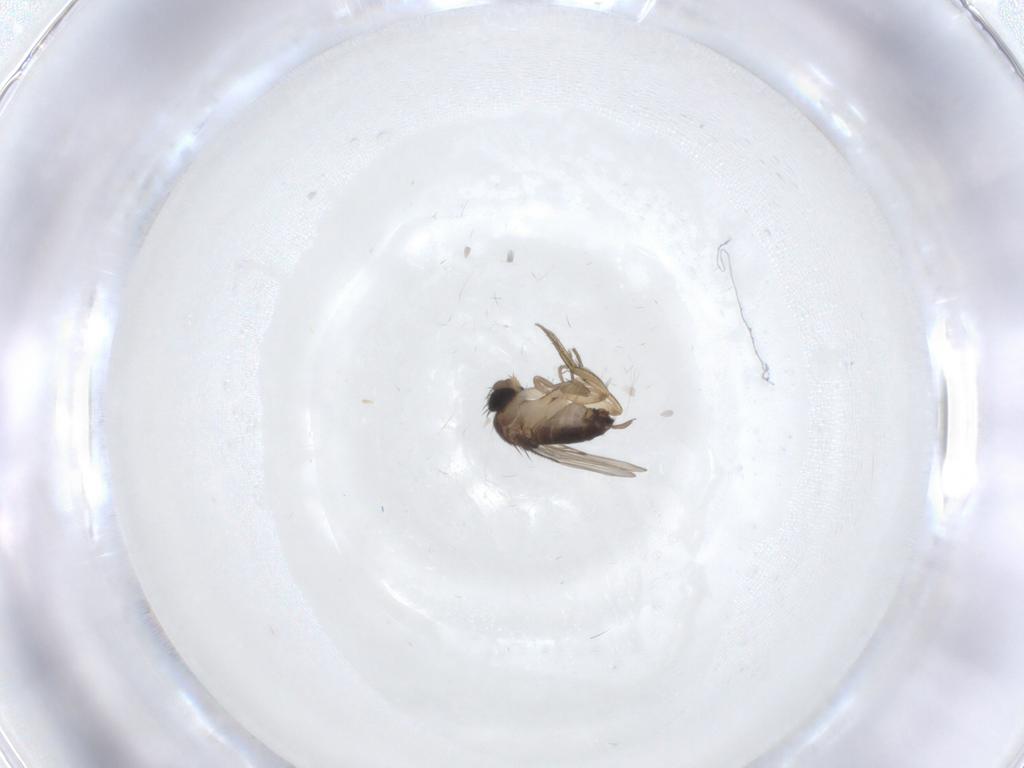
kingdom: Animalia
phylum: Arthropoda
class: Insecta
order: Diptera
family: Phoridae
